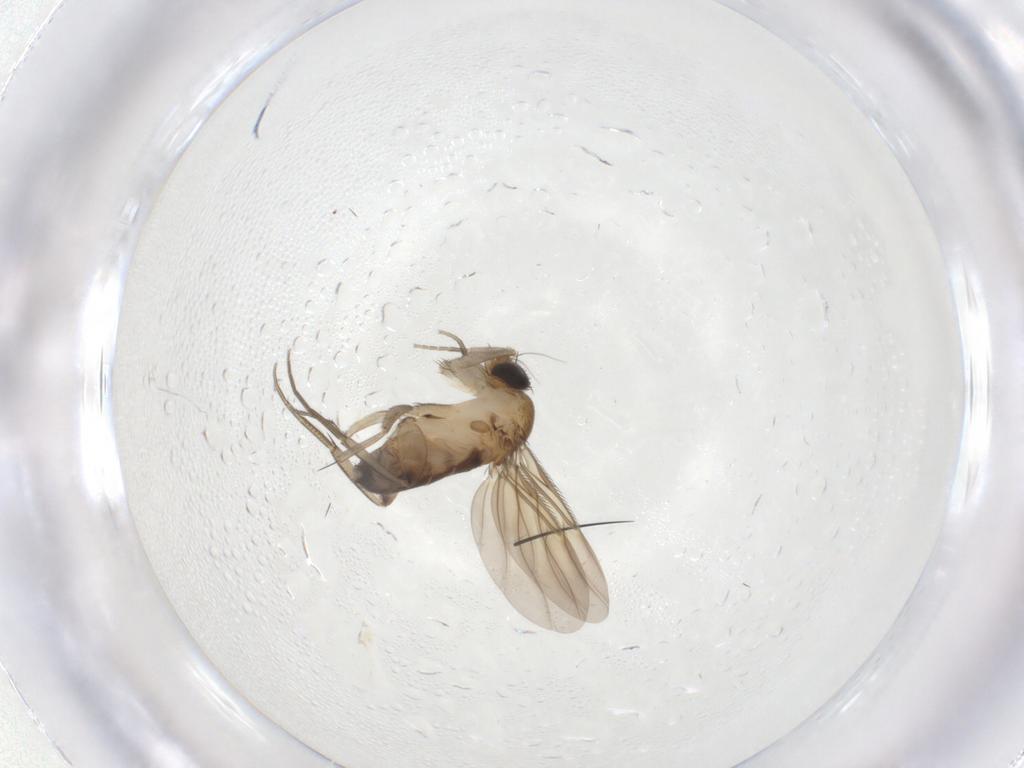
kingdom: Animalia
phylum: Arthropoda
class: Insecta
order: Diptera
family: Phoridae
